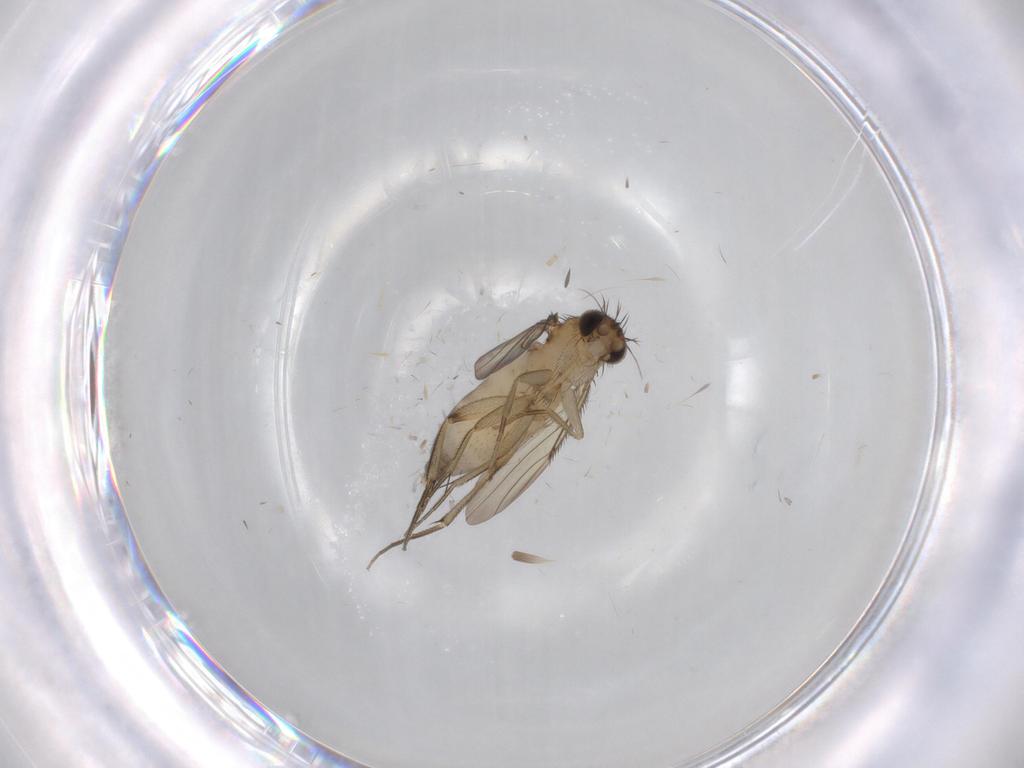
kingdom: Animalia
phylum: Arthropoda
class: Insecta
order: Diptera
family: Phoridae
